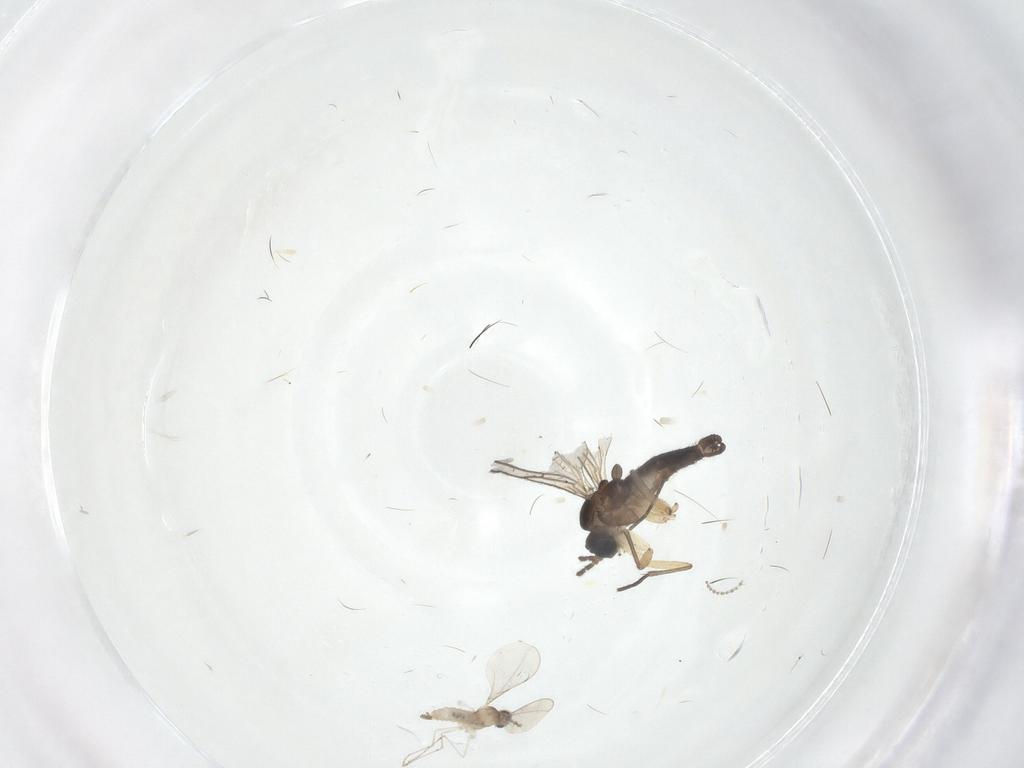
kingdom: Animalia
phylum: Arthropoda
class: Insecta
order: Diptera
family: Cecidomyiidae
